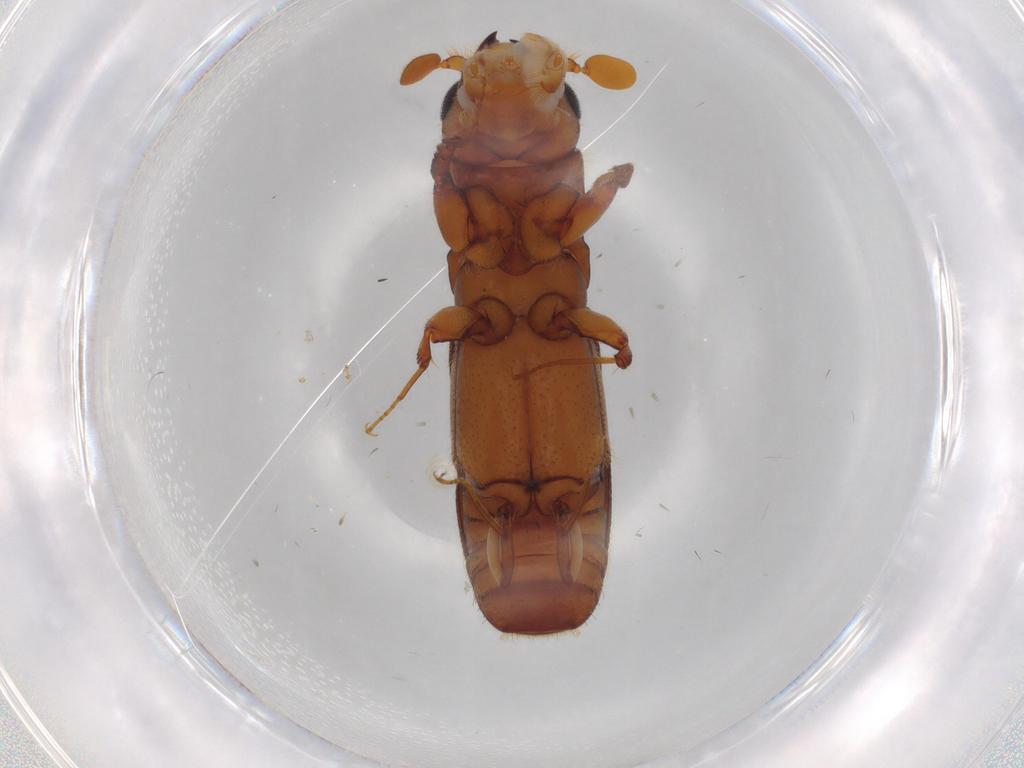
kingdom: Animalia
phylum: Arthropoda
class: Insecta
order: Coleoptera
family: Curculionidae
